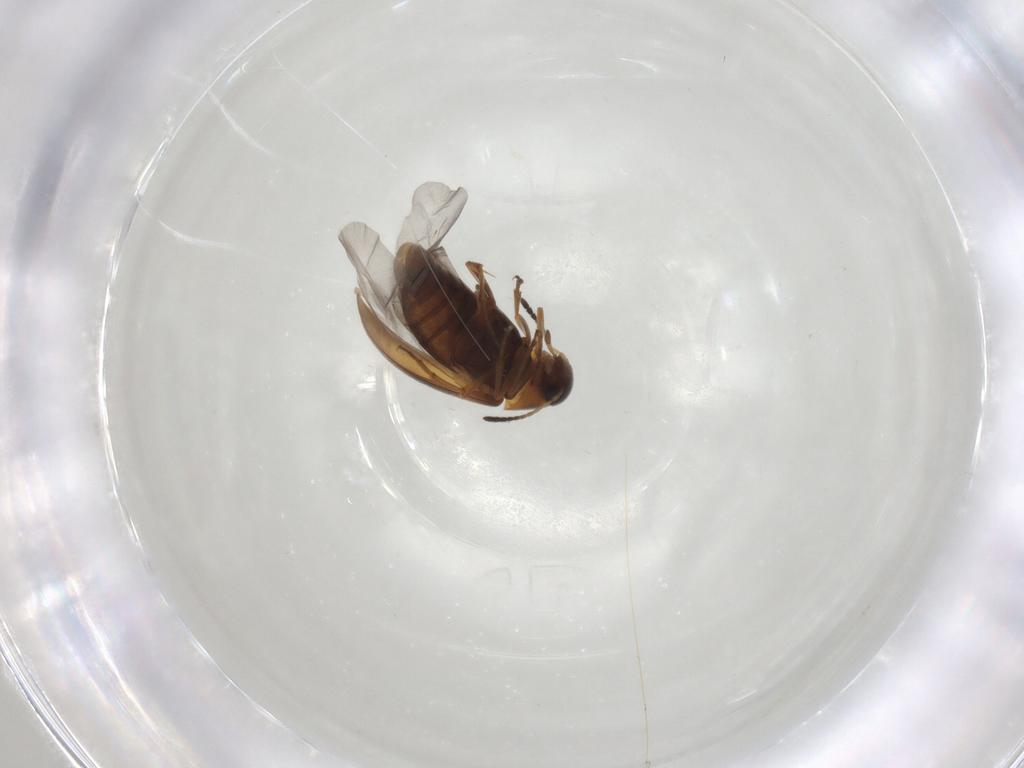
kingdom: Animalia
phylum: Arthropoda
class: Insecta
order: Coleoptera
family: Scraptiidae
